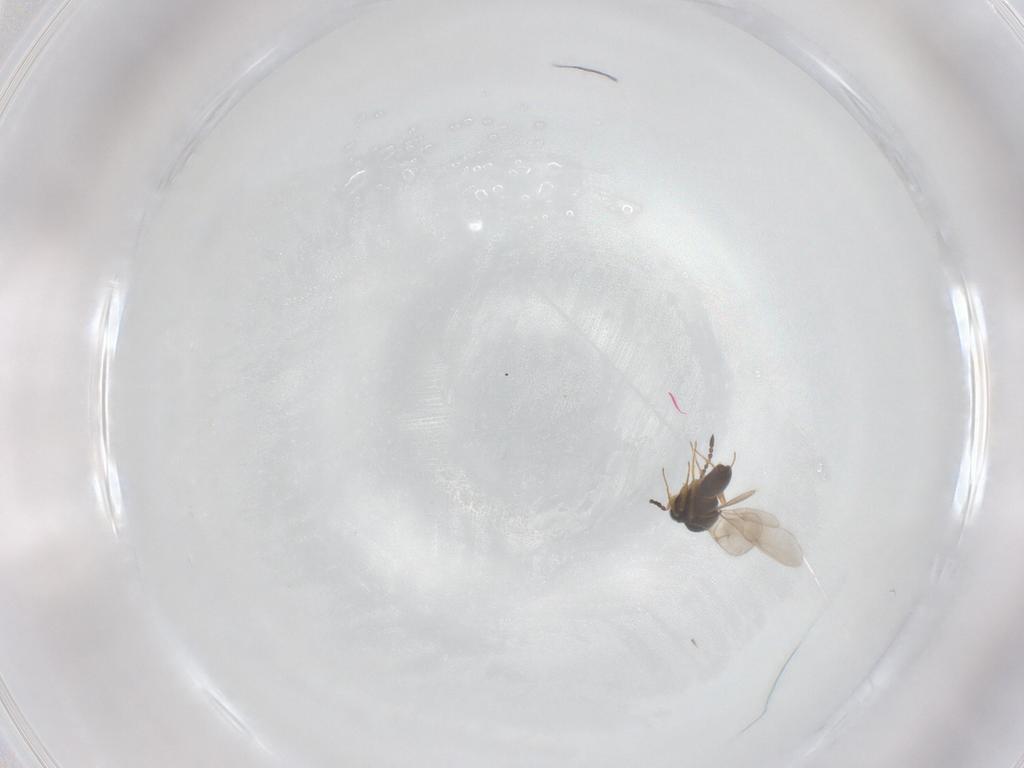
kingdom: Animalia
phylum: Arthropoda
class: Insecta
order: Hymenoptera
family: Scelionidae
